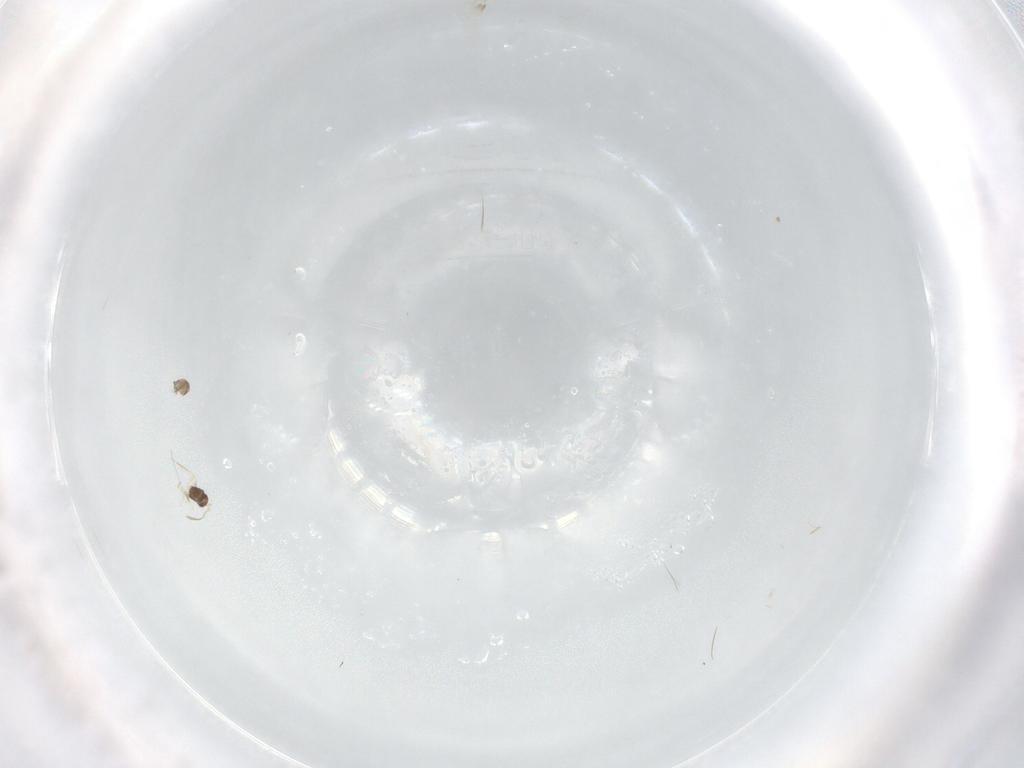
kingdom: Animalia
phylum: Arthropoda
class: Insecta
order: Hymenoptera
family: Mymaridae
